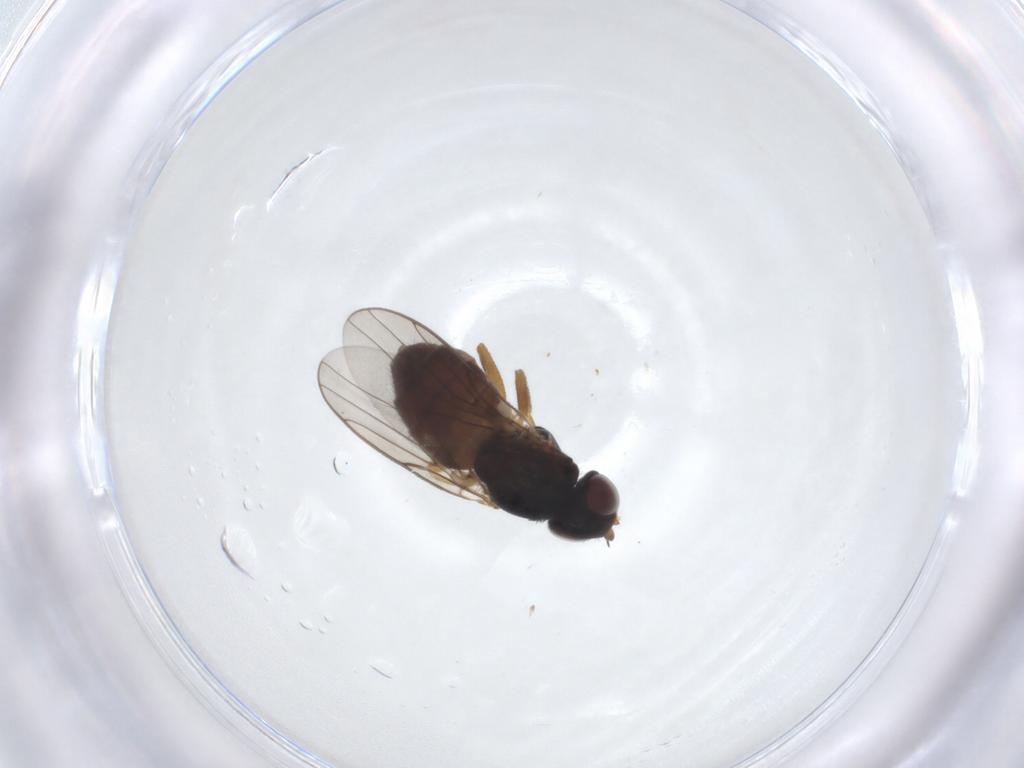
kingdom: Animalia
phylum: Arthropoda
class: Insecta
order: Diptera
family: Chloropidae
